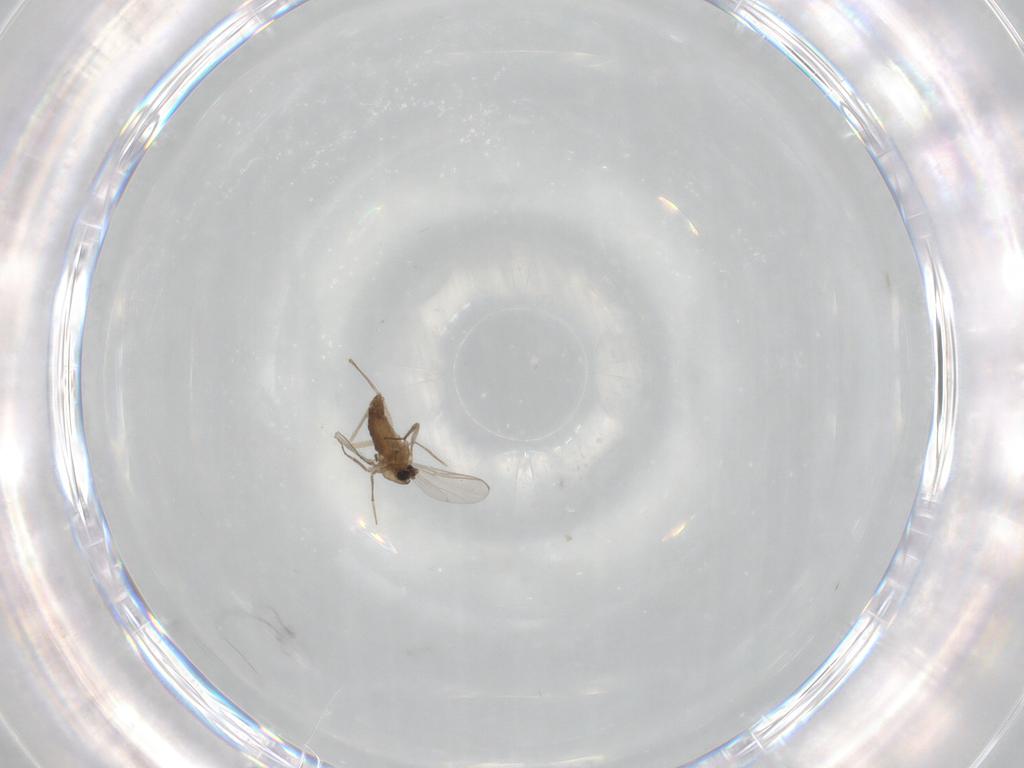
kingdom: Animalia
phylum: Arthropoda
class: Insecta
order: Diptera
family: Chironomidae
